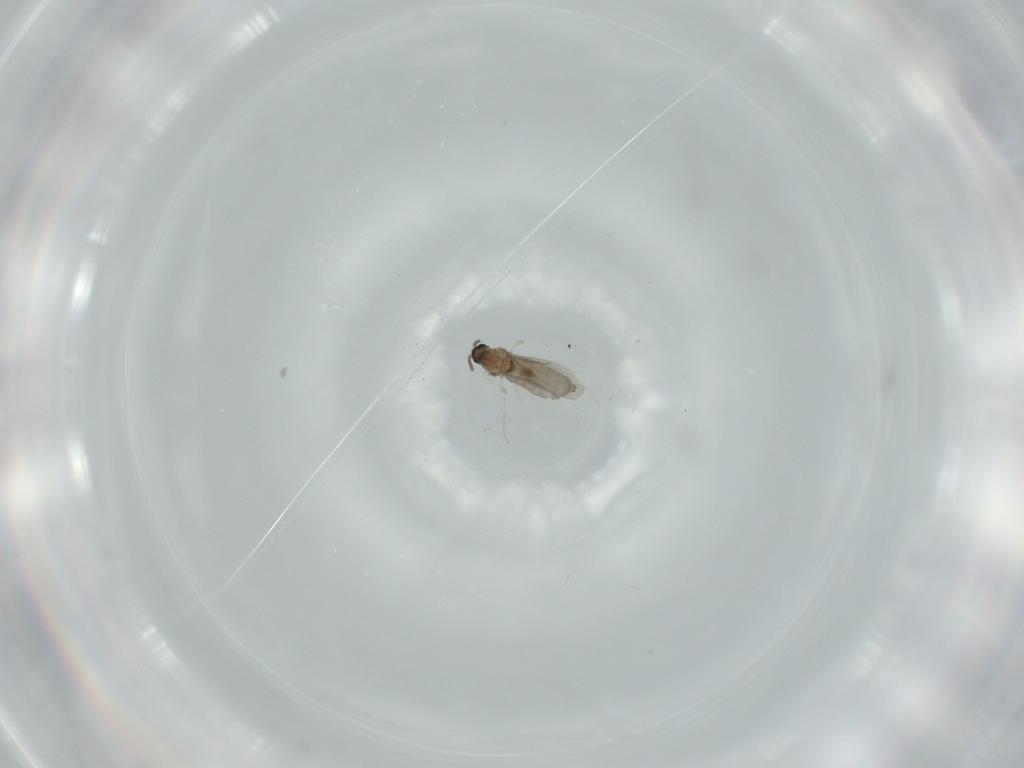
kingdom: Animalia
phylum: Arthropoda
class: Insecta
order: Diptera
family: Cecidomyiidae
